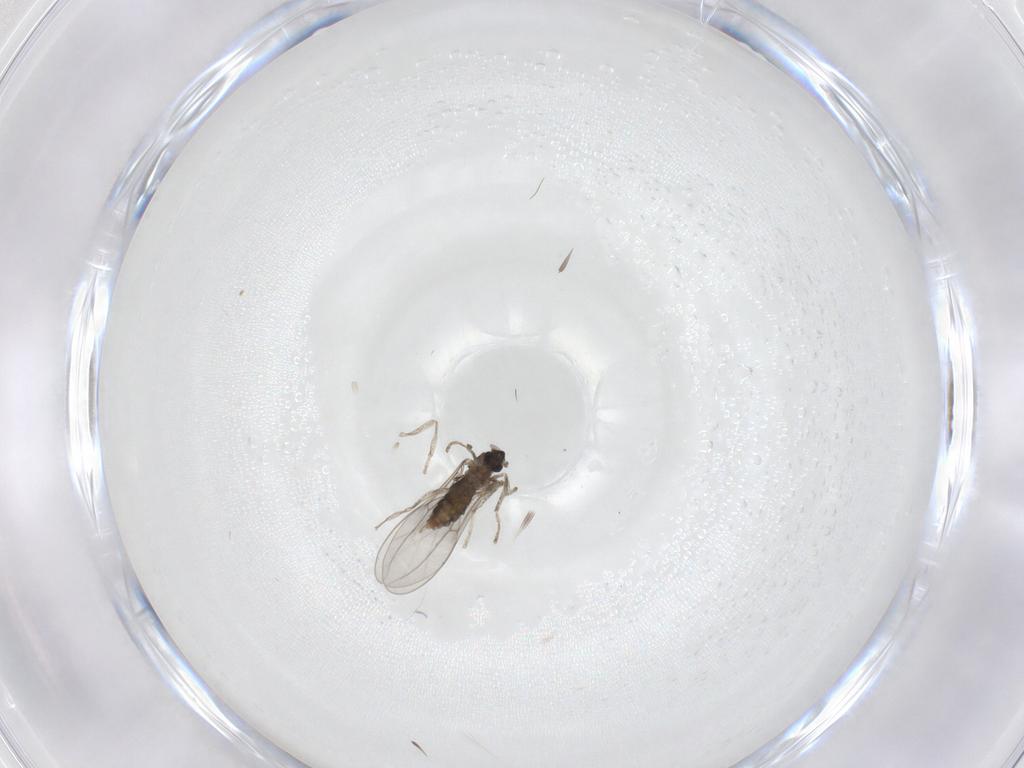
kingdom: Animalia
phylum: Arthropoda
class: Insecta
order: Diptera
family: Cecidomyiidae
